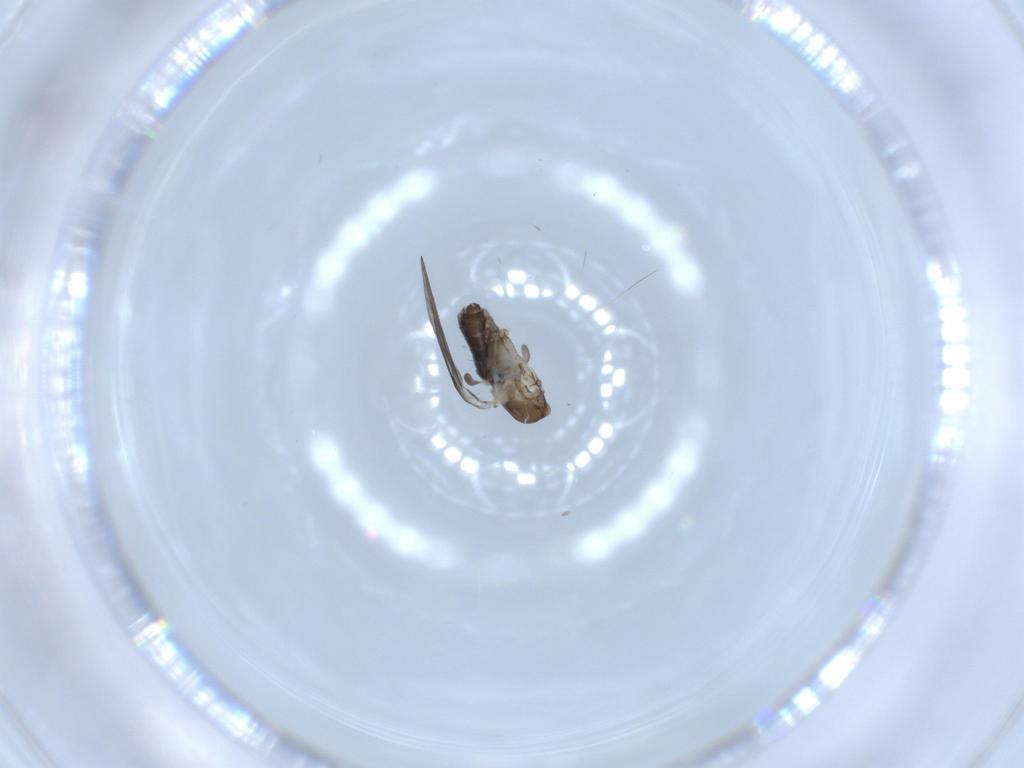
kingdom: Animalia
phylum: Arthropoda
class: Insecta
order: Diptera
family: Psychodidae
